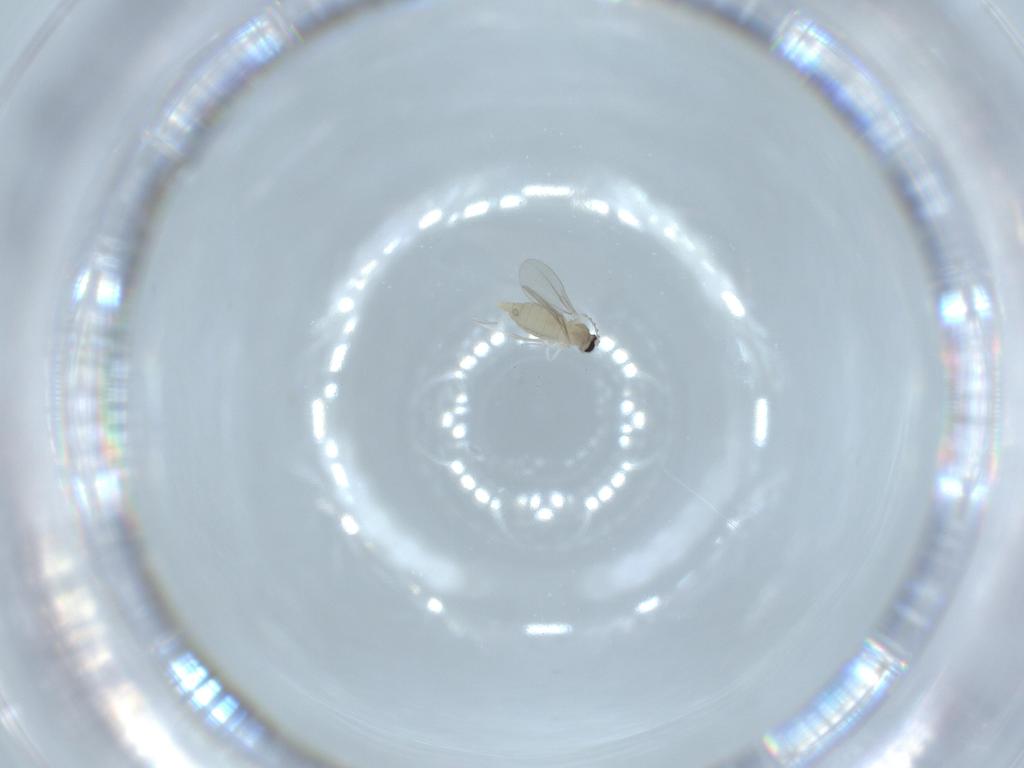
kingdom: Animalia
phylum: Arthropoda
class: Insecta
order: Diptera
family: Cecidomyiidae
